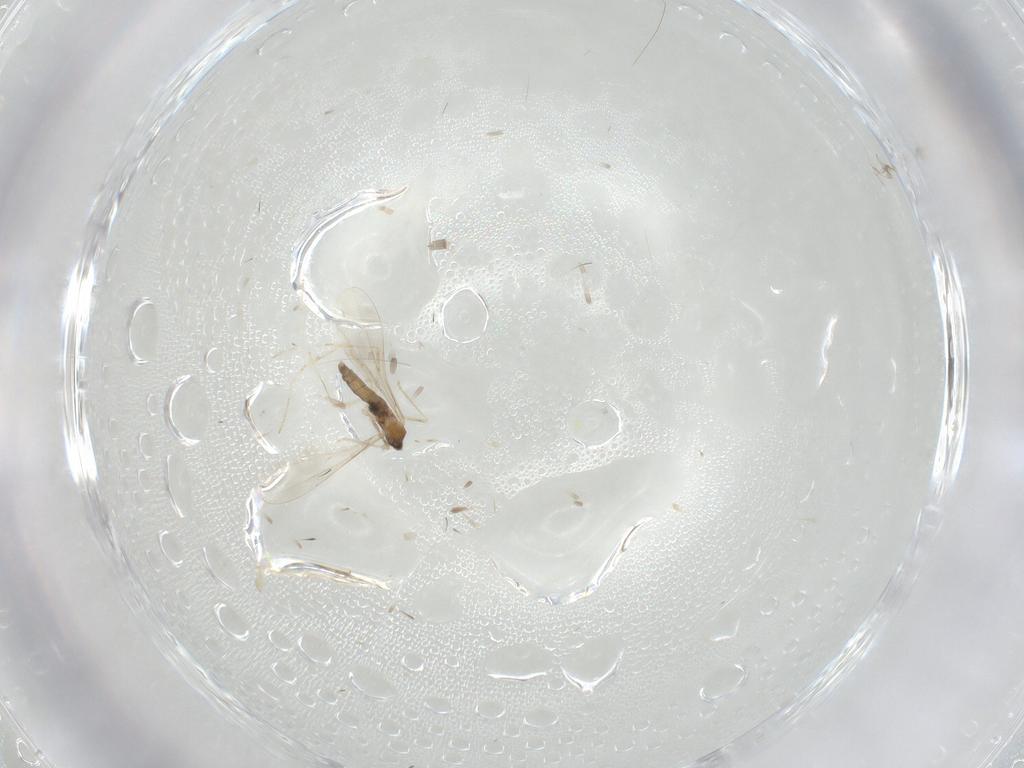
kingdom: Animalia
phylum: Arthropoda
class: Insecta
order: Diptera
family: Cecidomyiidae
